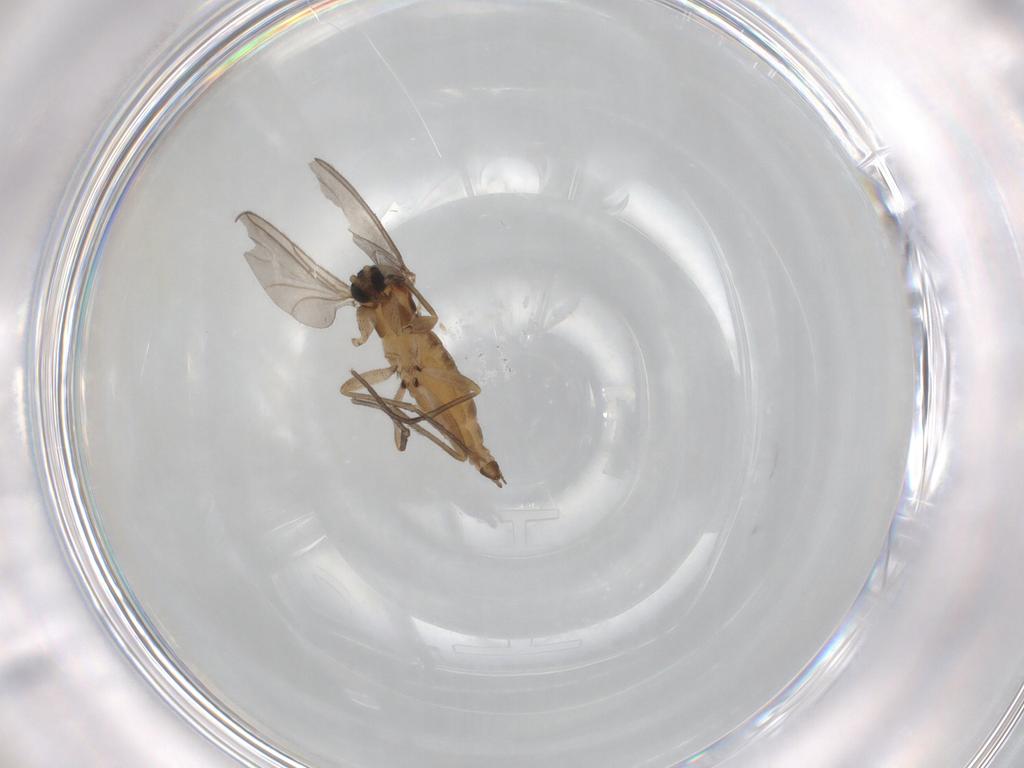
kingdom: Animalia
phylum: Arthropoda
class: Insecta
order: Diptera
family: Sciaridae
